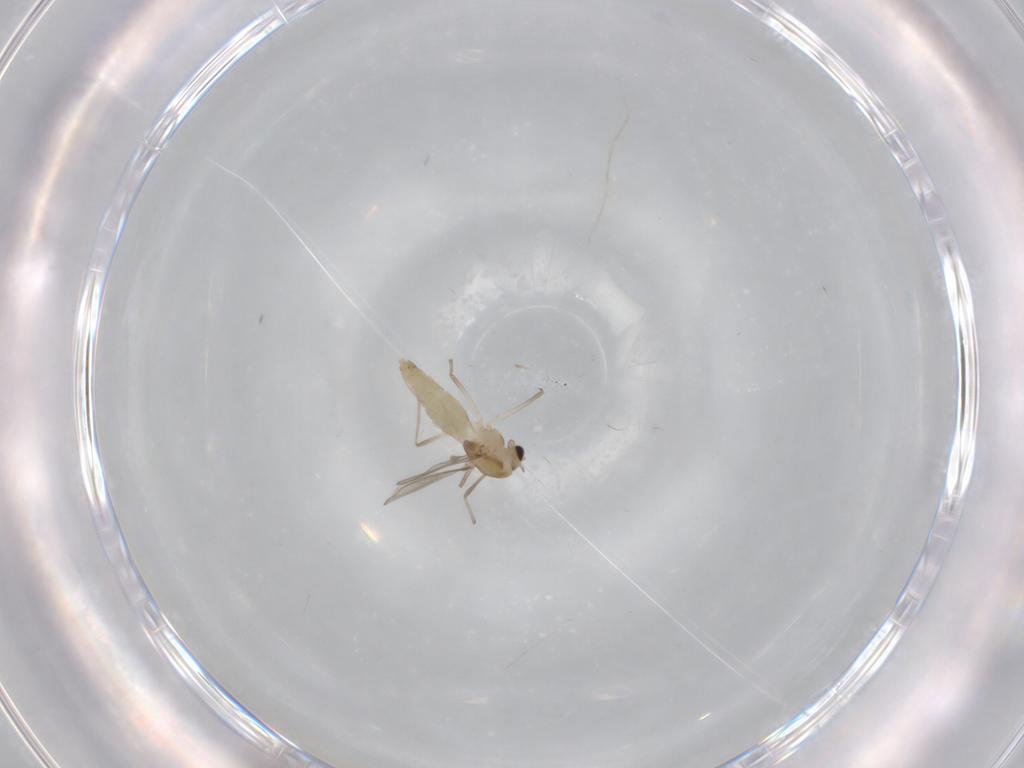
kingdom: Animalia
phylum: Arthropoda
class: Insecta
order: Diptera
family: Chironomidae
